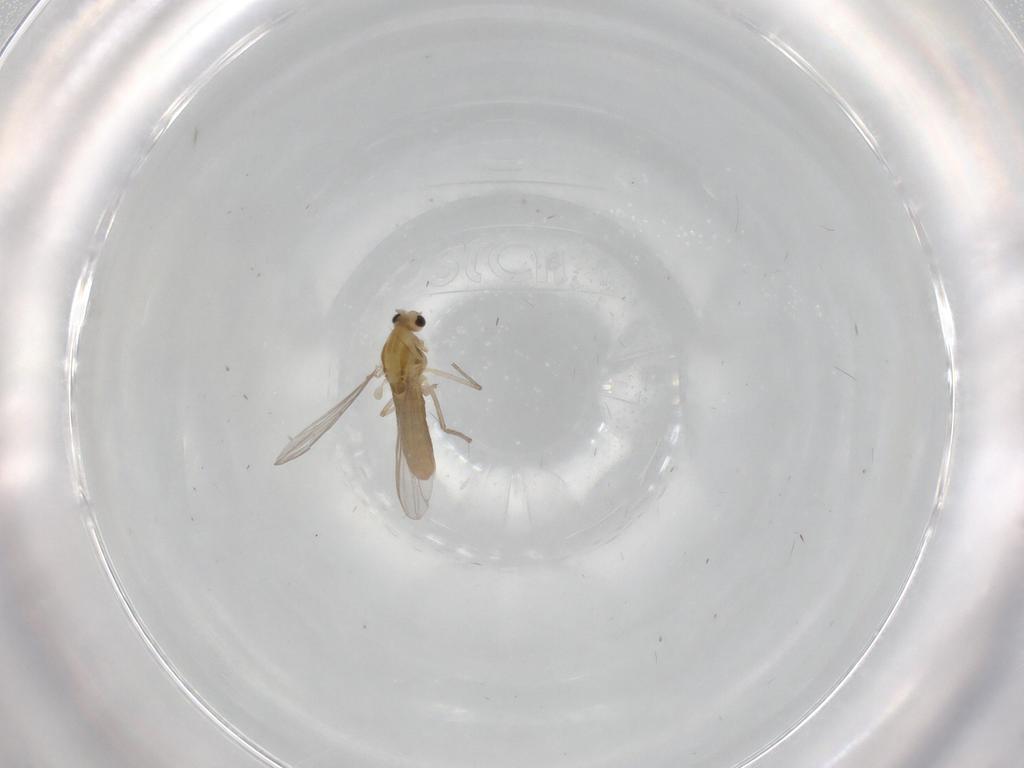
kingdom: Animalia
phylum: Arthropoda
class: Insecta
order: Diptera
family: Chironomidae
